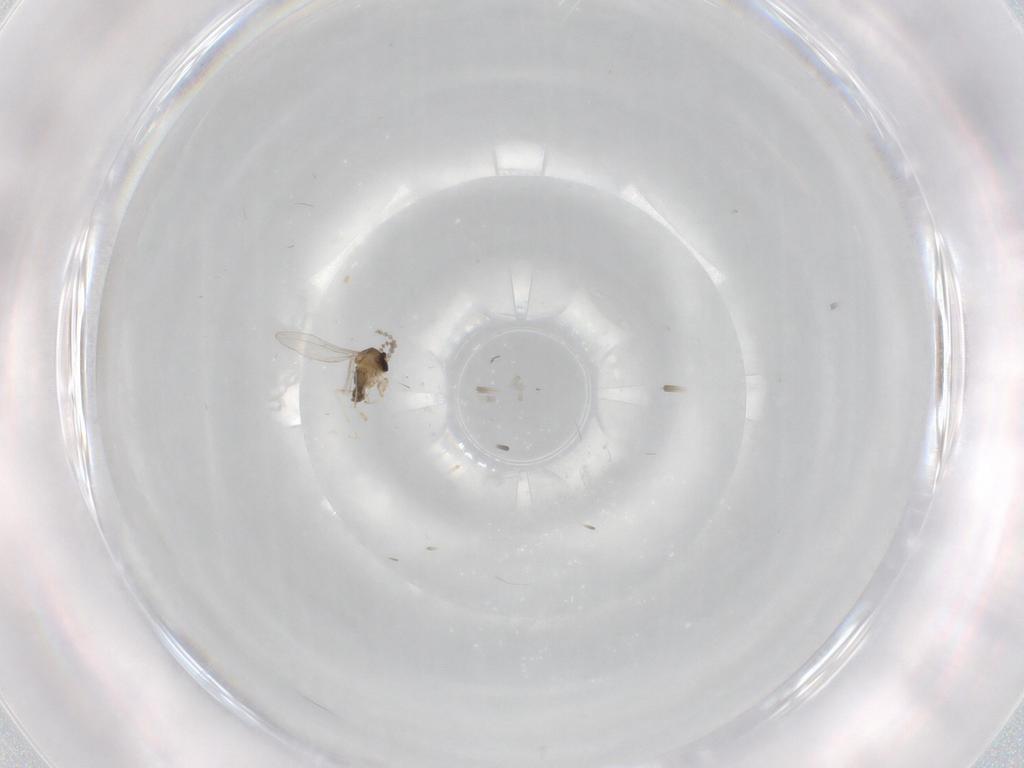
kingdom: Animalia
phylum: Arthropoda
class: Insecta
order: Diptera
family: Cecidomyiidae
